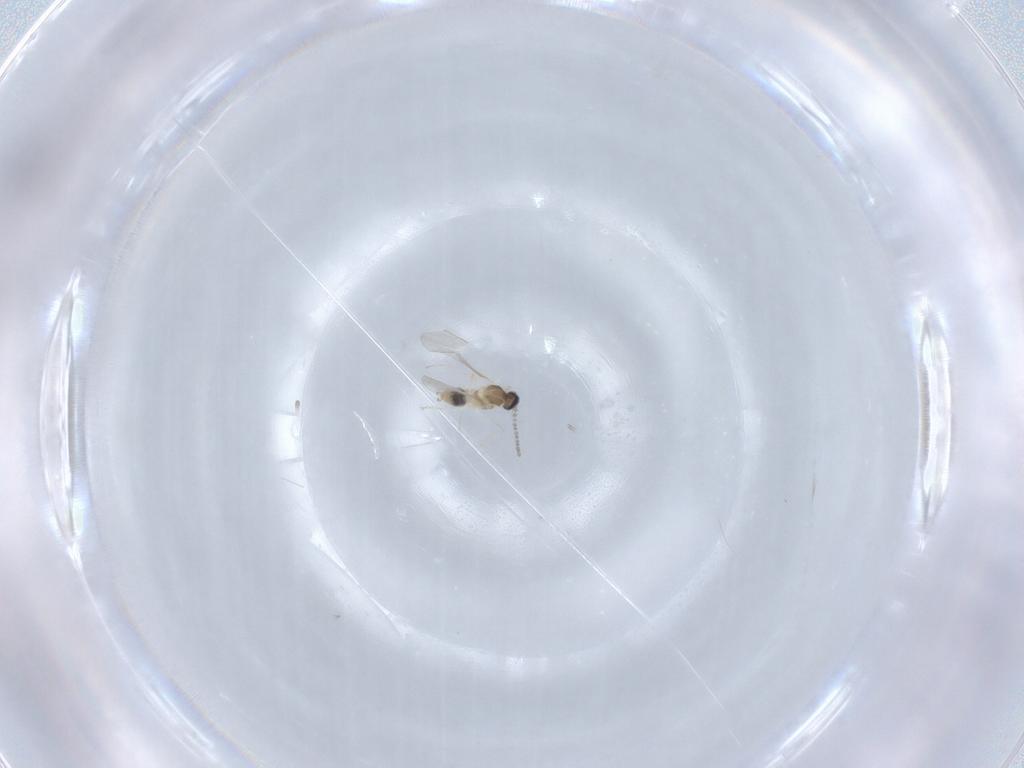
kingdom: Animalia
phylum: Arthropoda
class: Insecta
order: Diptera
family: Cecidomyiidae
